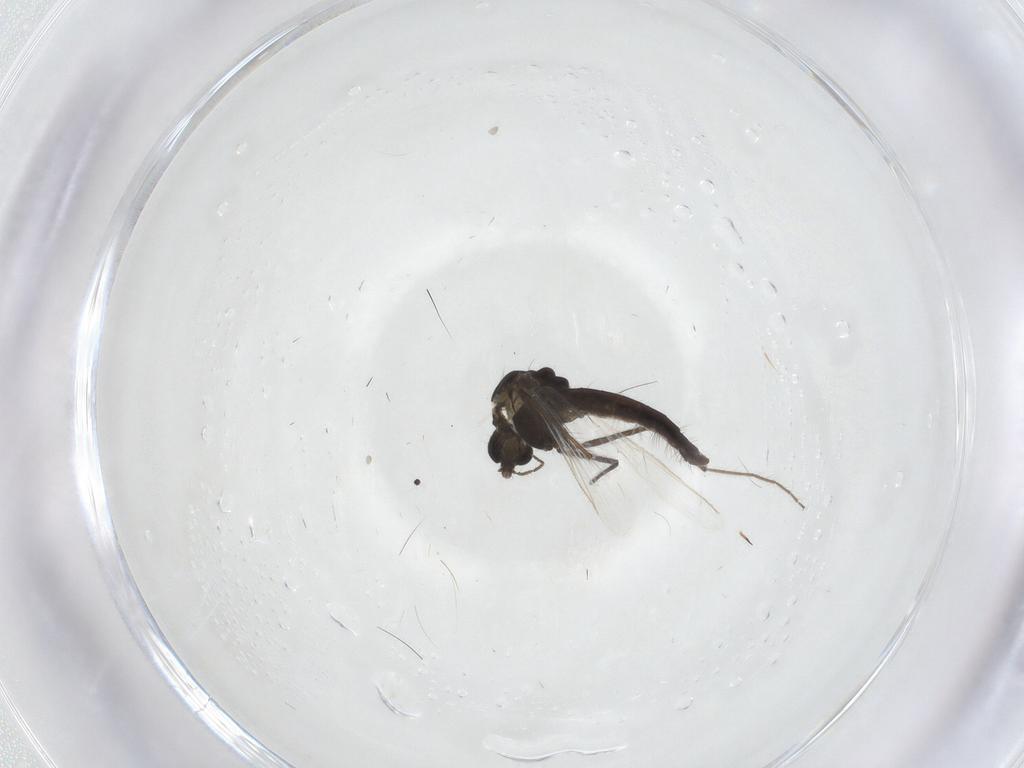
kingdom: Animalia
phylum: Arthropoda
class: Insecta
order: Diptera
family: Chironomidae
